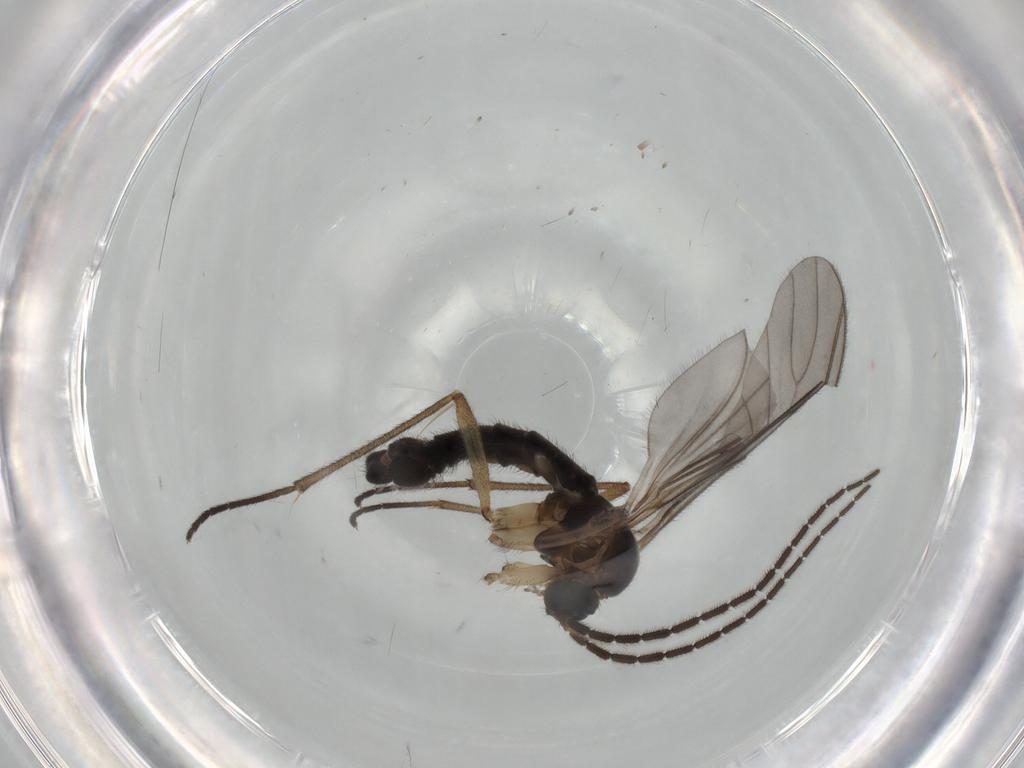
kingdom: Animalia
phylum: Arthropoda
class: Insecta
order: Diptera
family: Sciaridae
